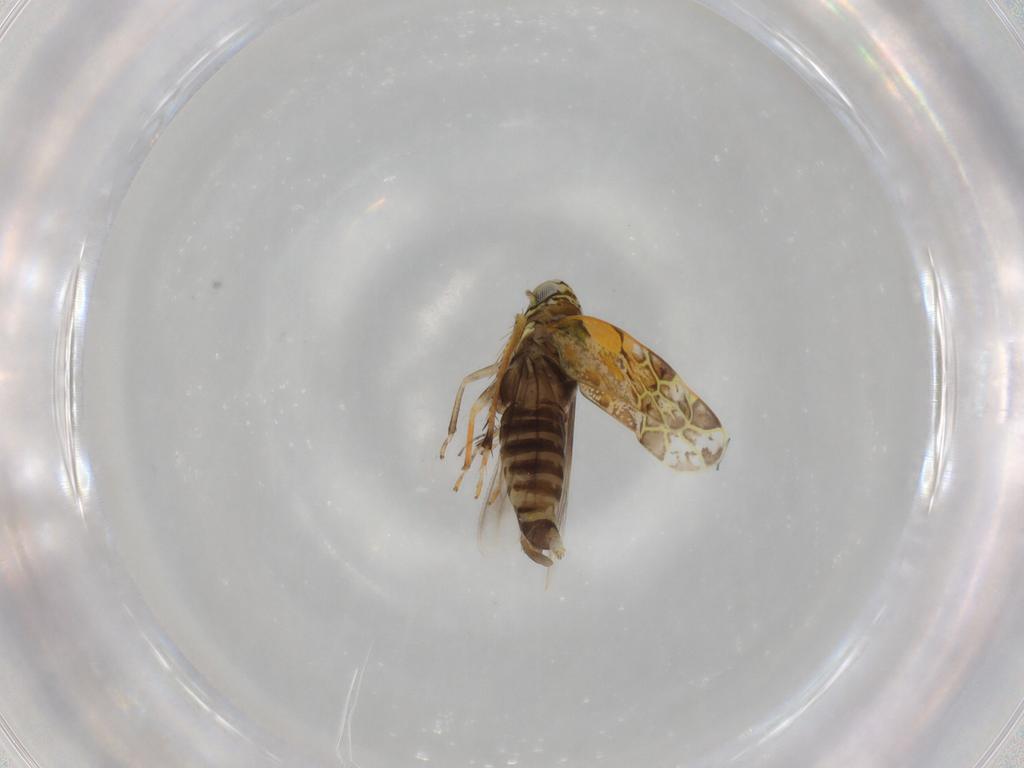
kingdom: Animalia
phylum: Arthropoda
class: Insecta
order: Hemiptera
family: Cicadellidae
